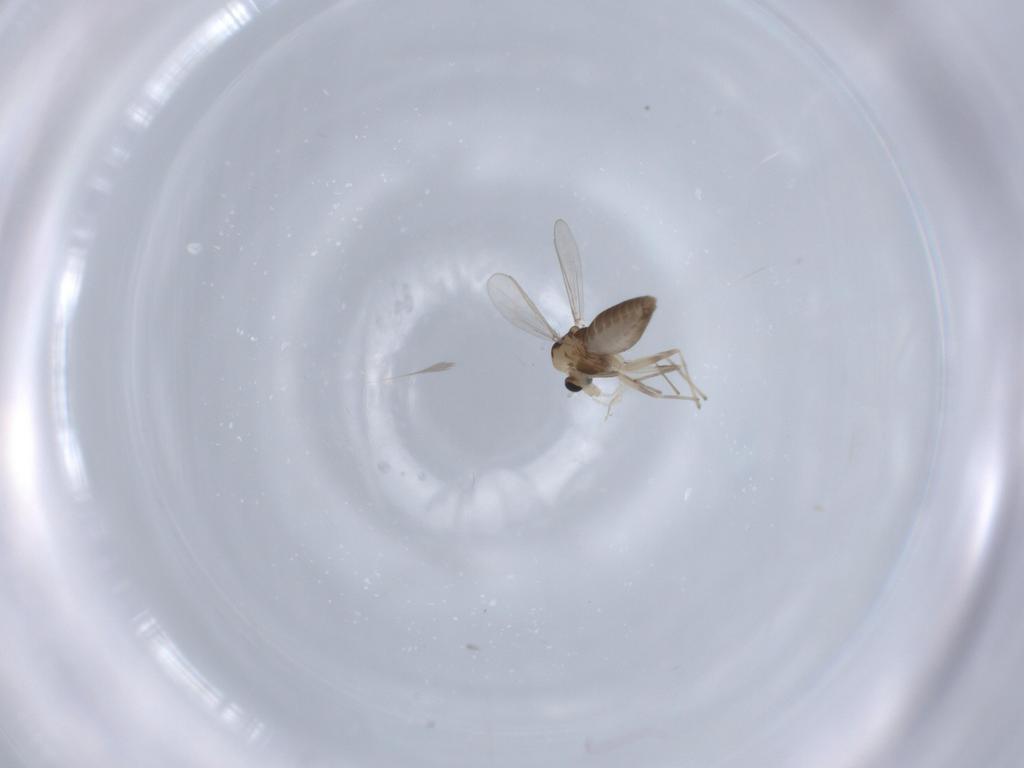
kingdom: Animalia
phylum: Arthropoda
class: Insecta
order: Diptera
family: Chironomidae
